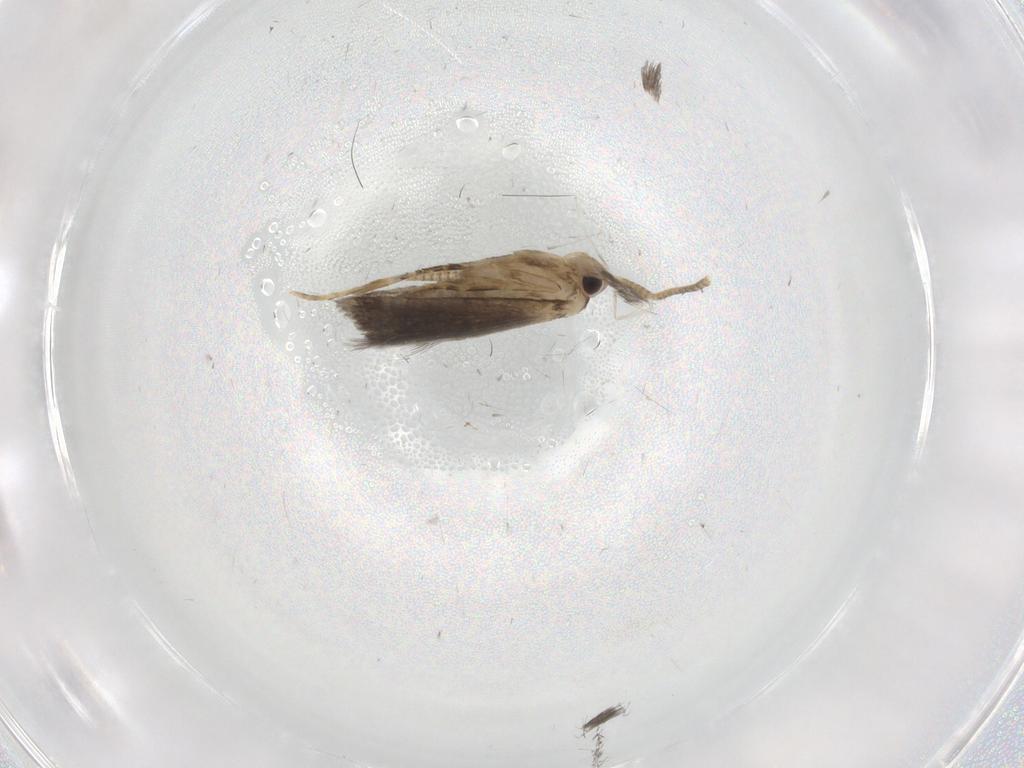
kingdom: Animalia
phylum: Arthropoda
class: Insecta
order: Lepidoptera
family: Tineidae
